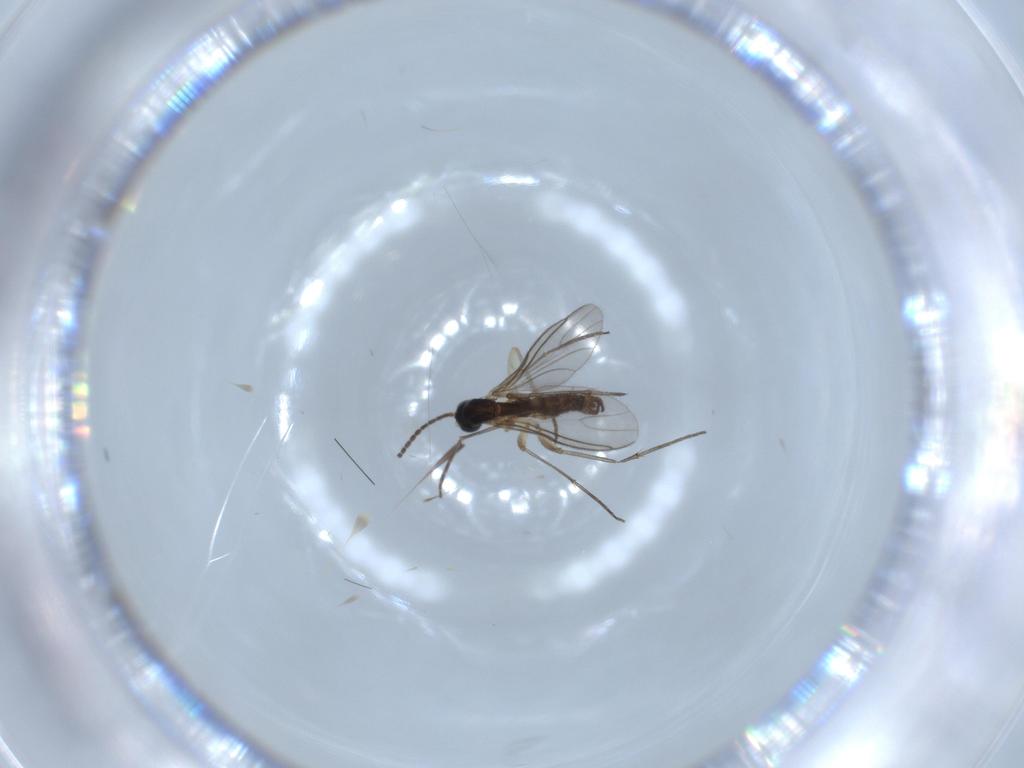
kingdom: Animalia
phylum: Arthropoda
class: Insecta
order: Diptera
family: Sciaridae
